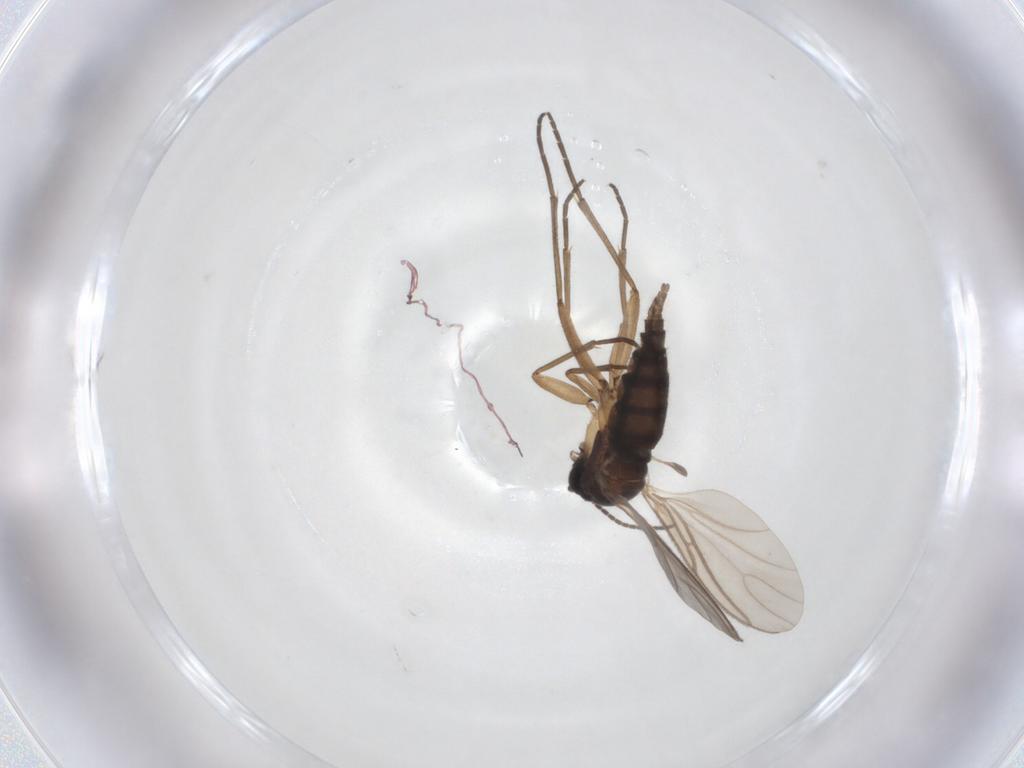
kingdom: Animalia
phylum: Arthropoda
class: Insecta
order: Diptera
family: Sciaridae
